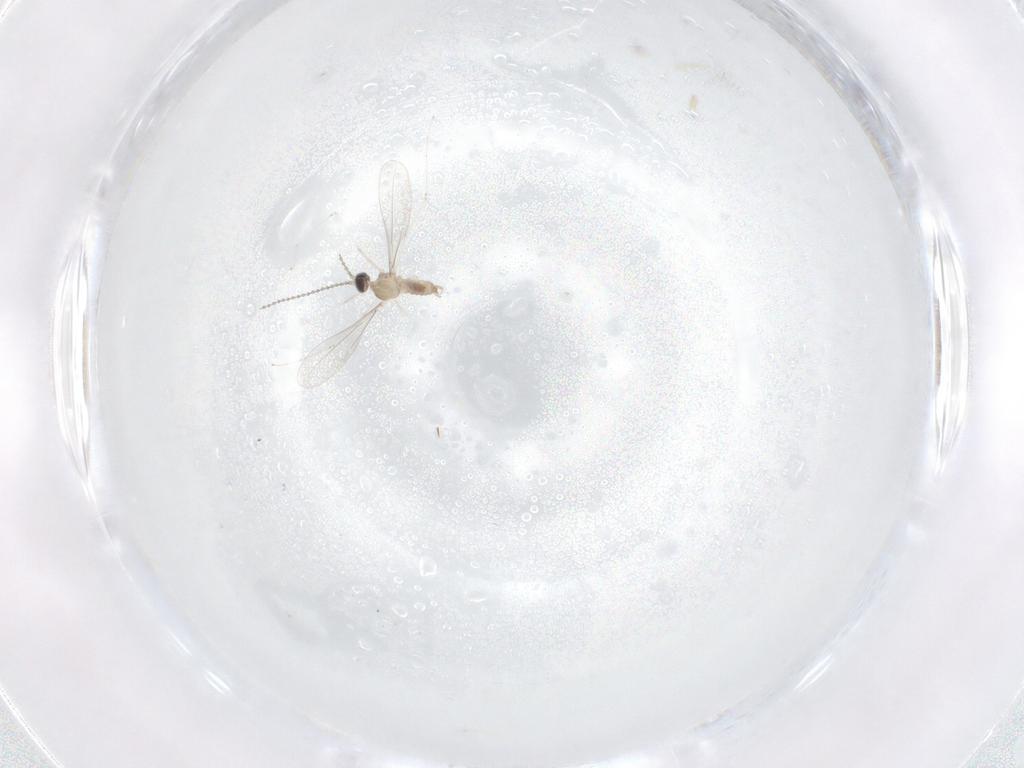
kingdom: Animalia
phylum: Arthropoda
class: Insecta
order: Diptera
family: Cecidomyiidae
